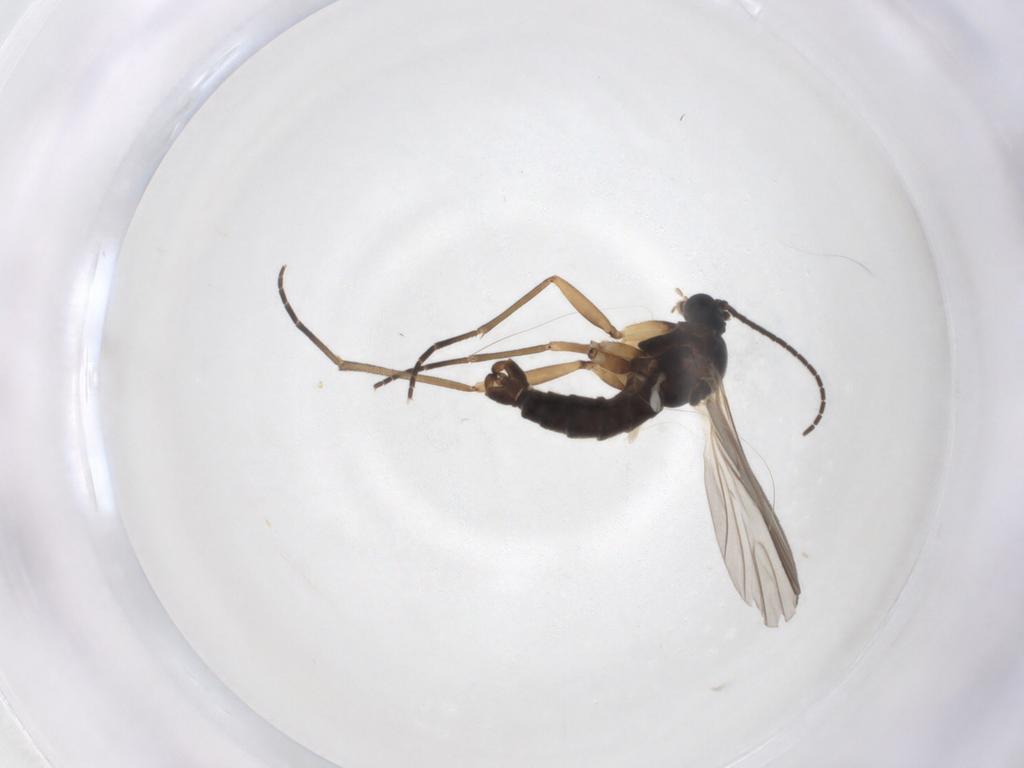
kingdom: Animalia
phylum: Arthropoda
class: Insecta
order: Diptera
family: Sciaridae
